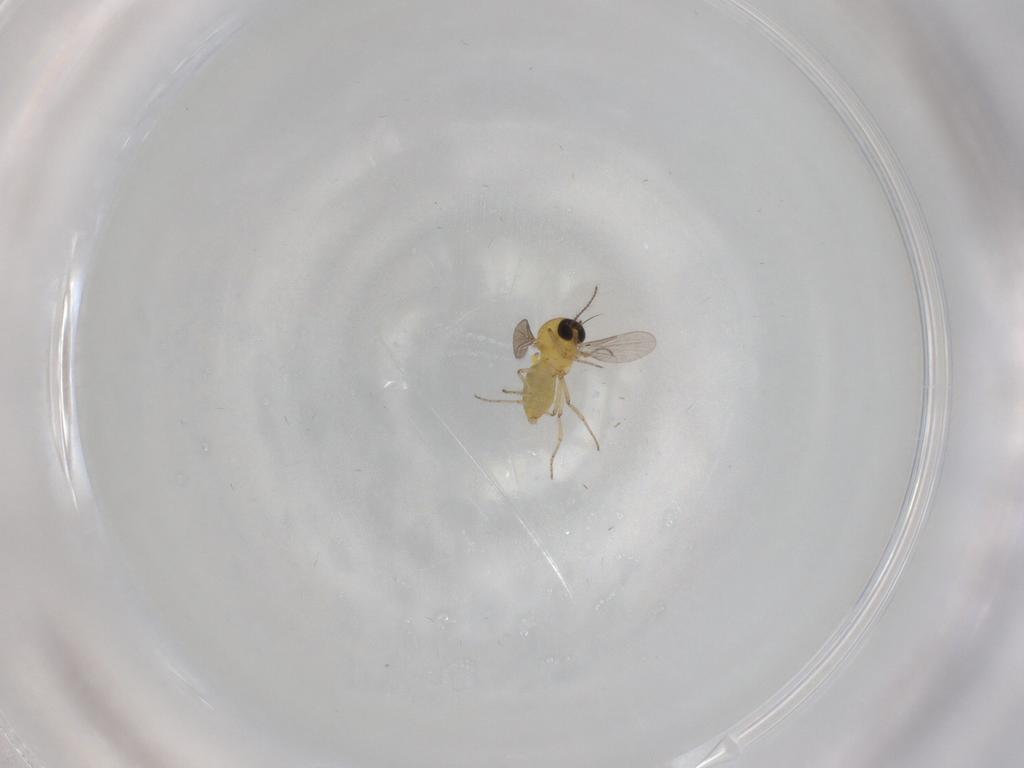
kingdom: Animalia
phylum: Arthropoda
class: Insecta
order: Diptera
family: Ceratopogonidae
